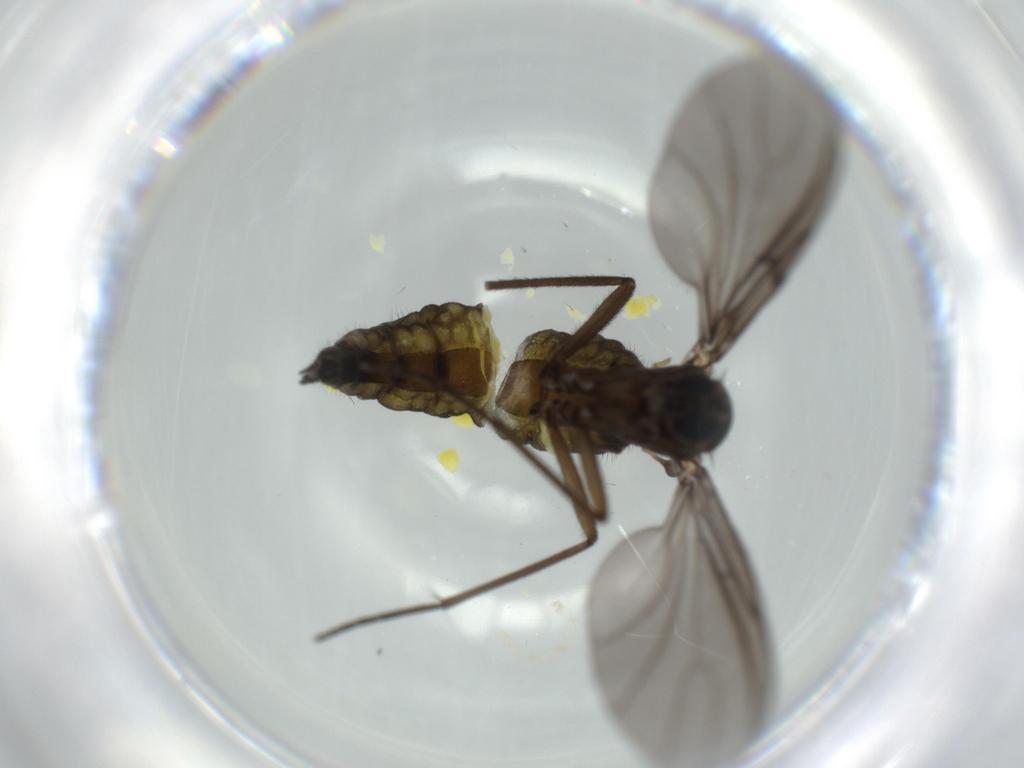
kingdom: Animalia
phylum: Arthropoda
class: Insecta
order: Diptera
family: Sciaridae
